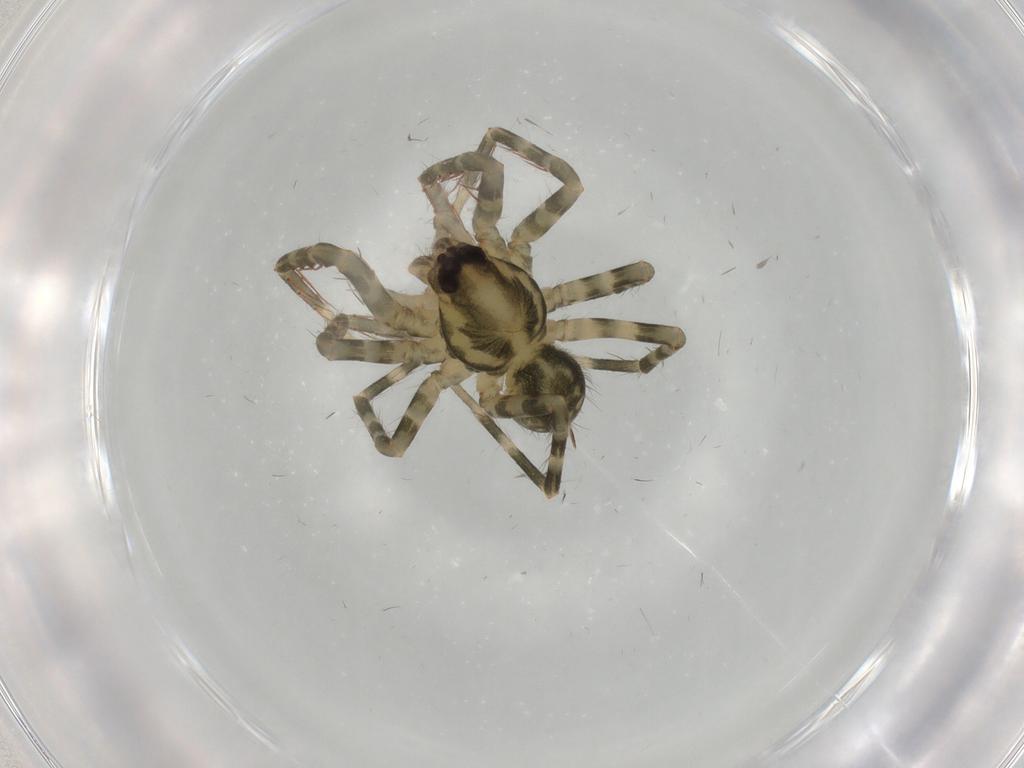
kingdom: Animalia
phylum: Arthropoda
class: Arachnida
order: Araneae
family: Ctenidae
